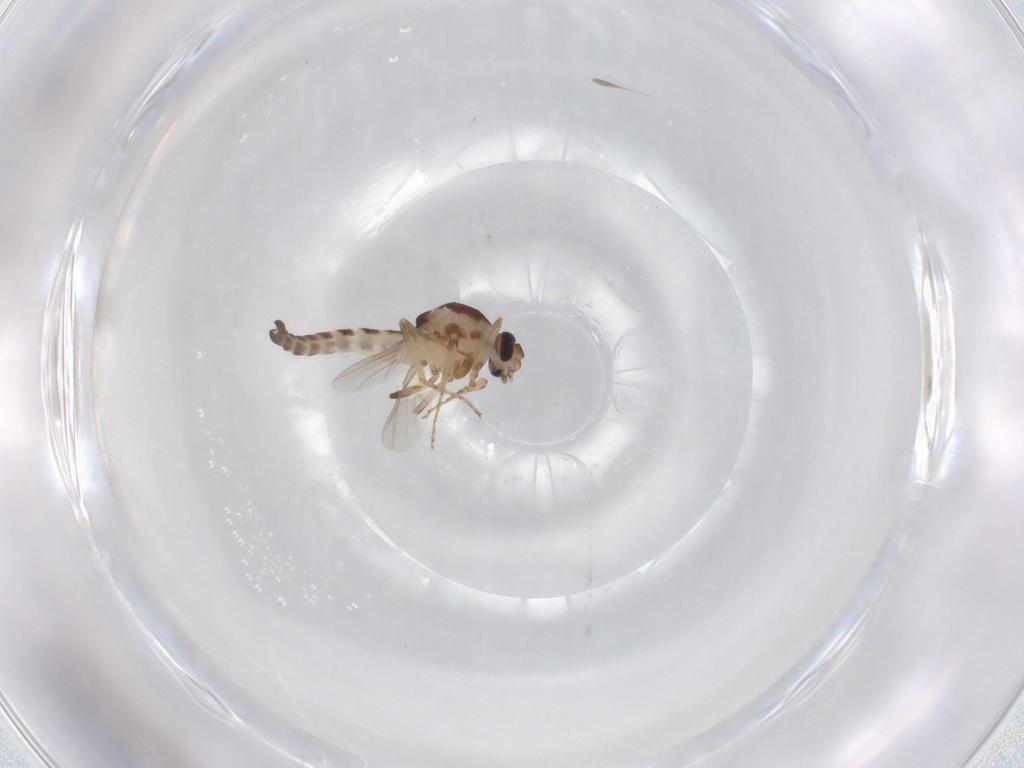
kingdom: Animalia
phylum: Arthropoda
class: Insecta
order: Diptera
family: Ceratopogonidae
